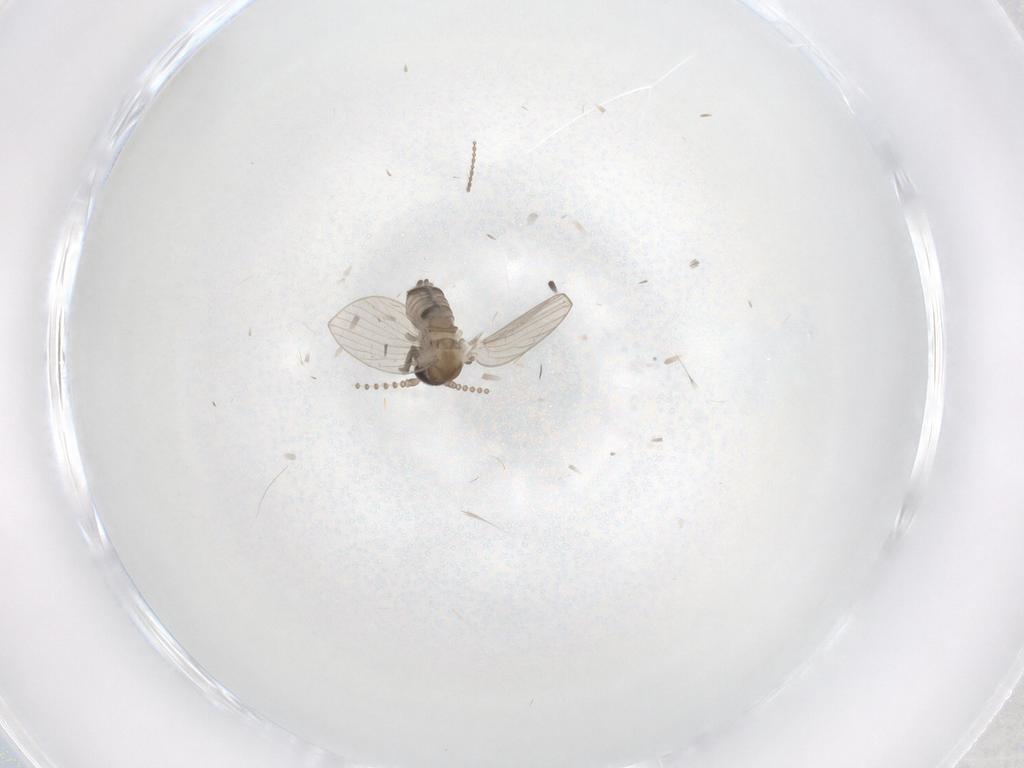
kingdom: Animalia
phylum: Arthropoda
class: Insecta
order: Diptera
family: Psychodidae
